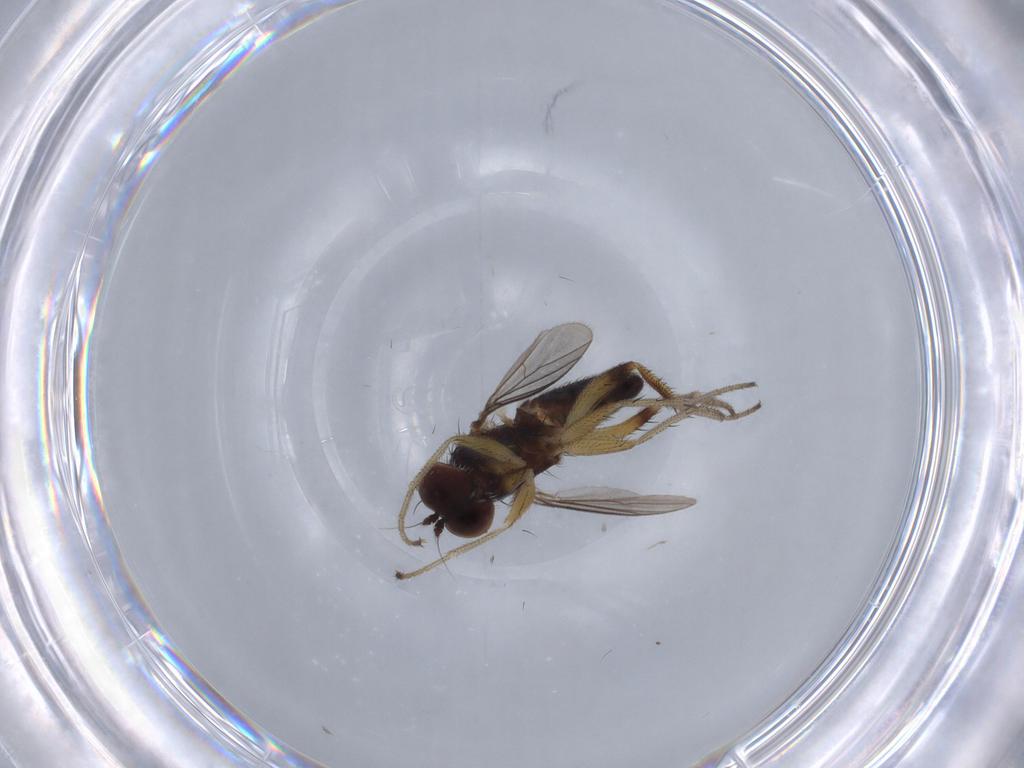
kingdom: Animalia
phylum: Arthropoda
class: Insecta
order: Diptera
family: Dolichopodidae
